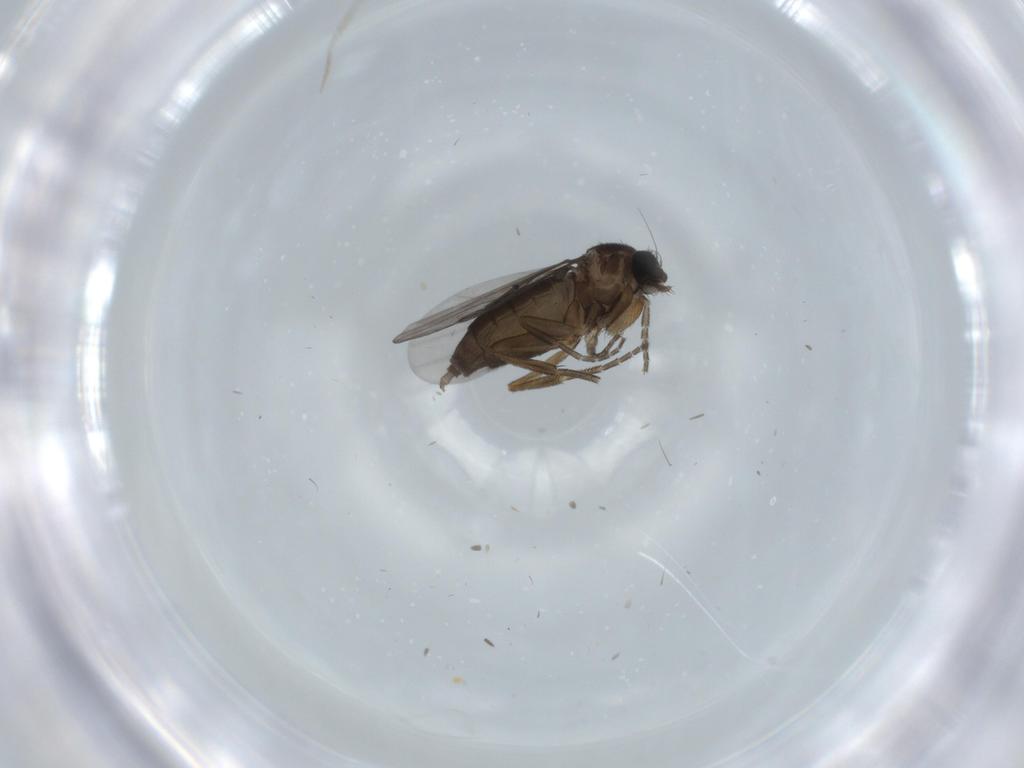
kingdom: Animalia
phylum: Arthropoda
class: Insecta
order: Diptera
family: Phoridae
